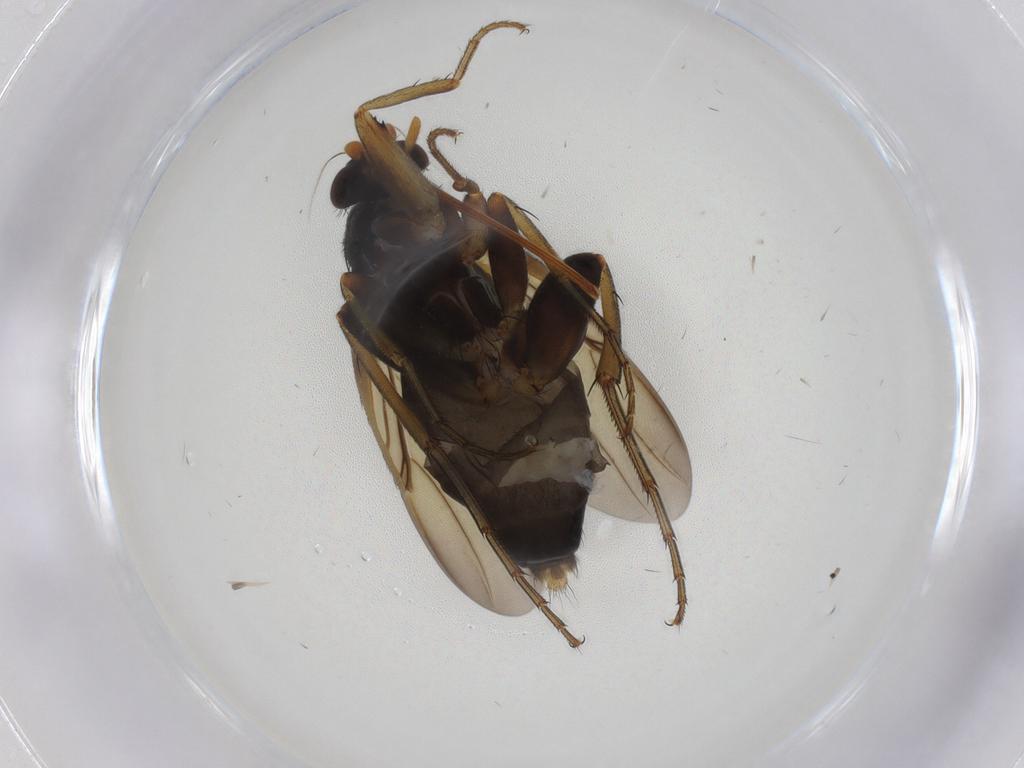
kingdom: Animalia
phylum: Arthropoda
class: Insecta
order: Diptera
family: Phoridae
